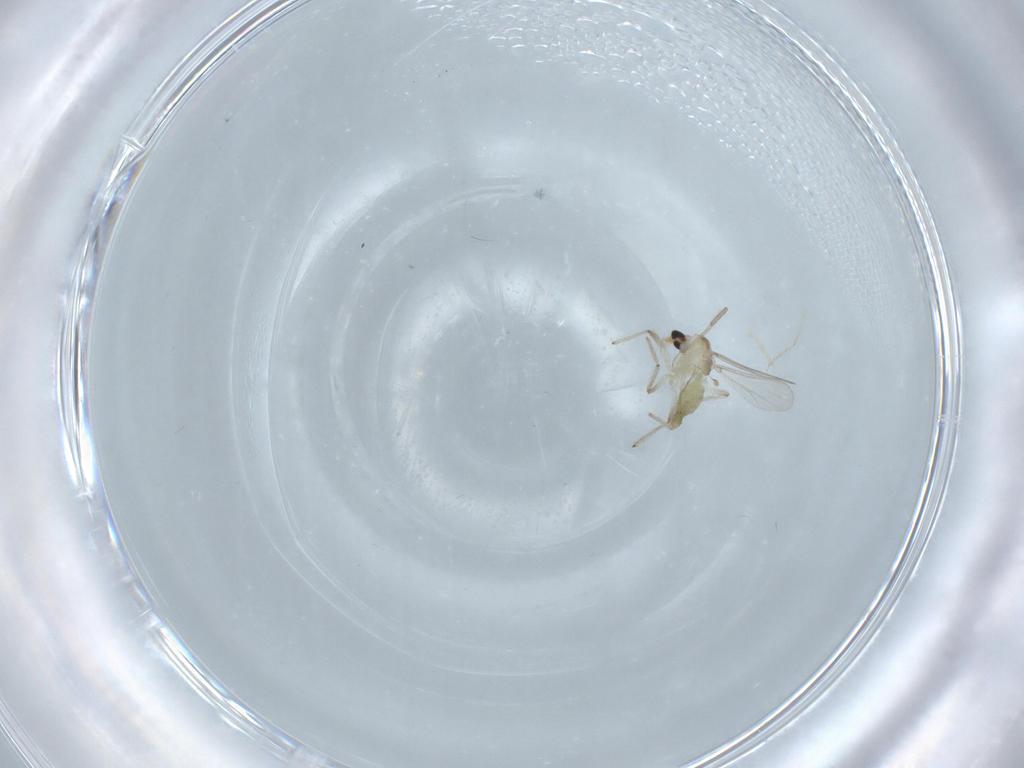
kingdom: Animalia
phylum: Arthropoda
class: Insecta
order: Diptera
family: Chironomidae
